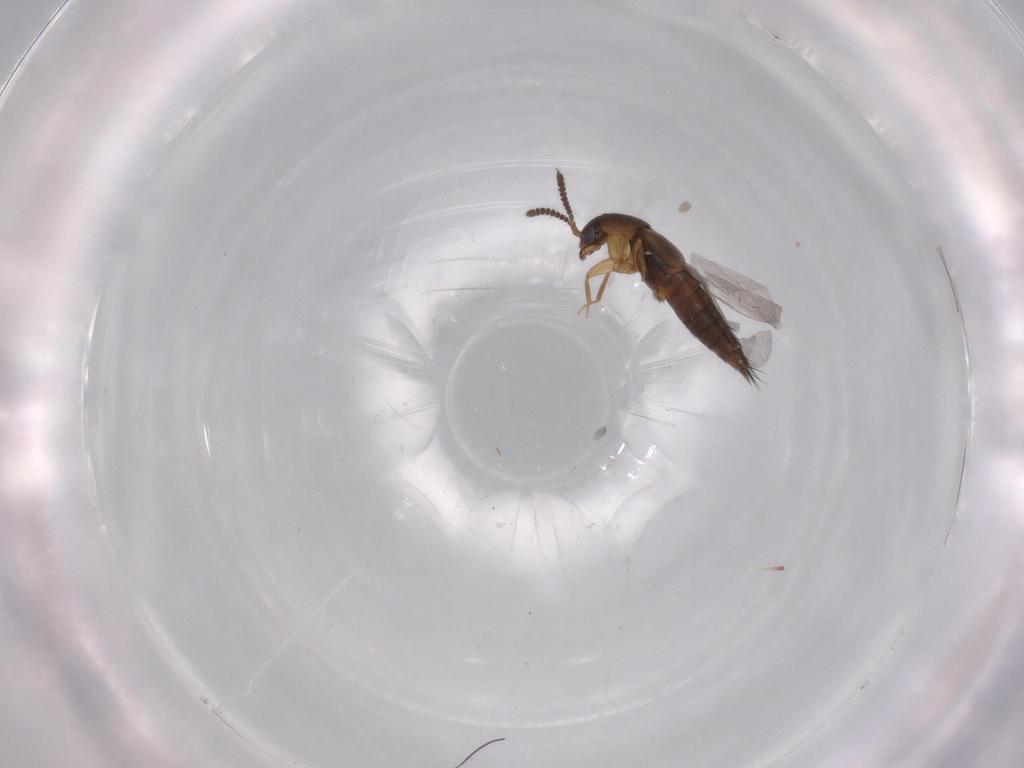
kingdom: Animalia
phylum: Arthropoda
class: Insecta
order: Coleoptera
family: Staphylinidae
